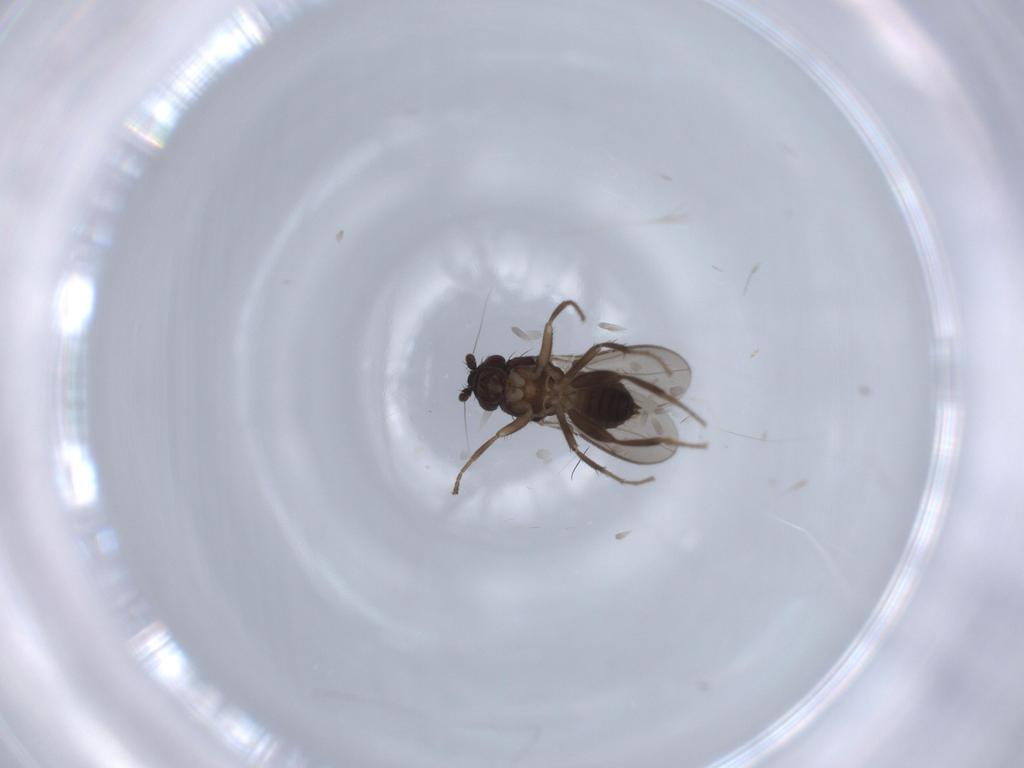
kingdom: Animalia
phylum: Arthropoda
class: Insecta
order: Diptera
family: Sphaeroceridae
